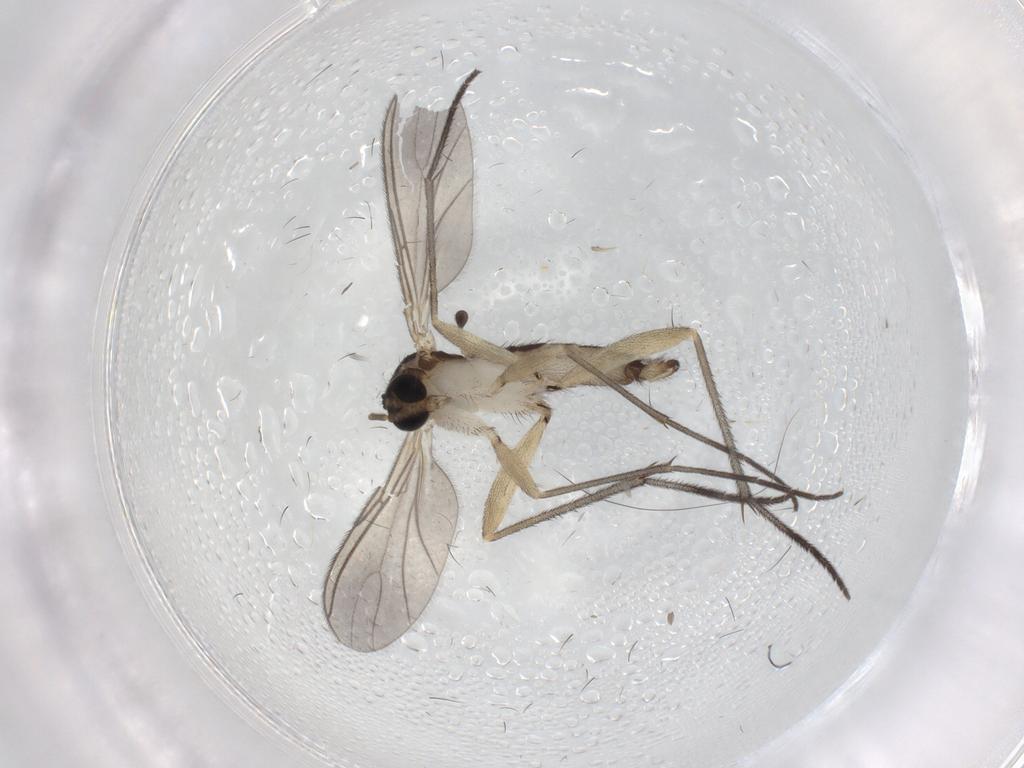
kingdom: Animalia
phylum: Arthropoda
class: Insecta
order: Diptera
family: Sciaridae
